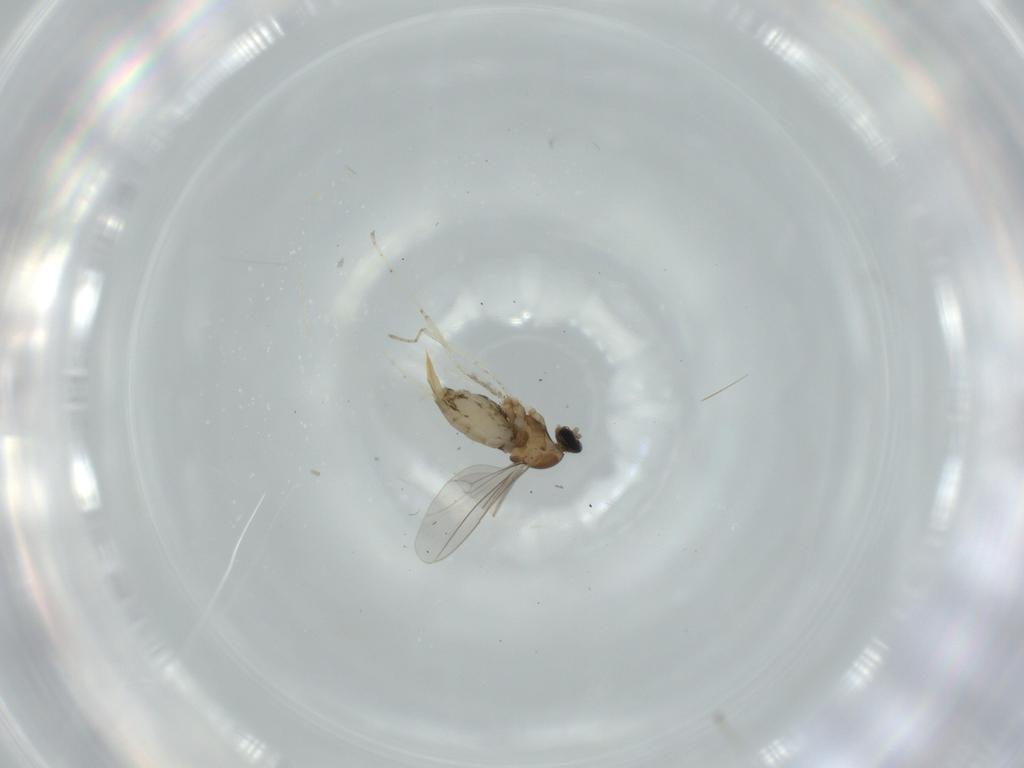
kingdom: Animalia
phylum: Arthropoda
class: Insecta
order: Diptera
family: Cecidomyiidae
